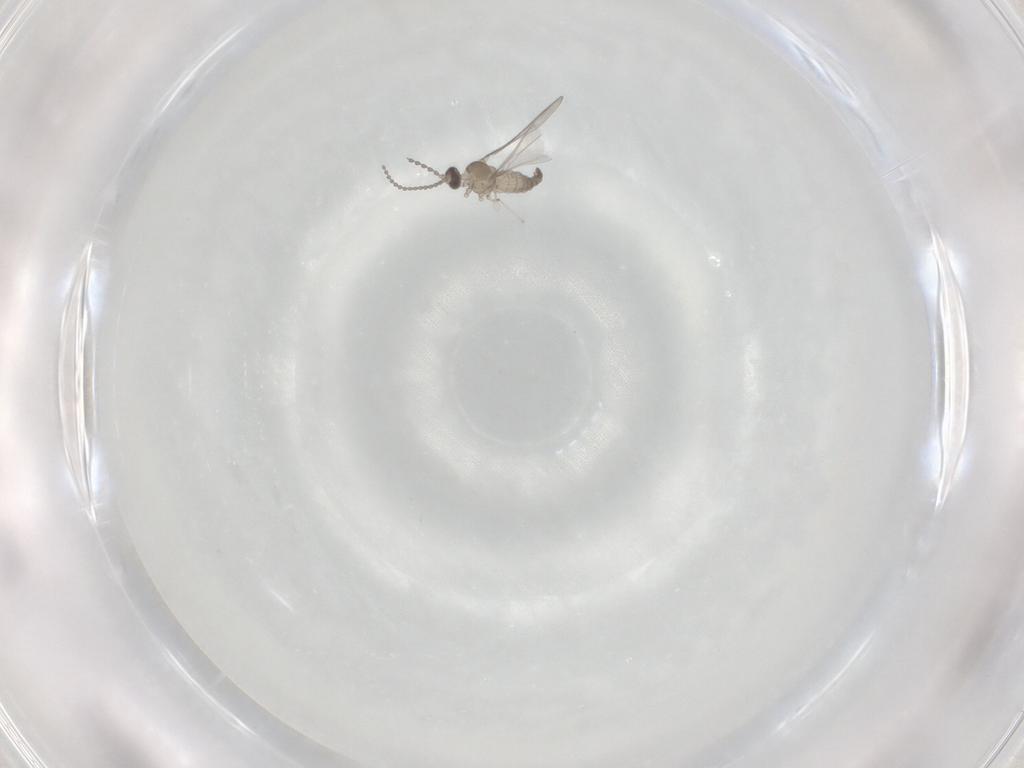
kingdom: Animalia
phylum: Arthropoda
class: Insecta
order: Diptera
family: Cecidomyiidae
